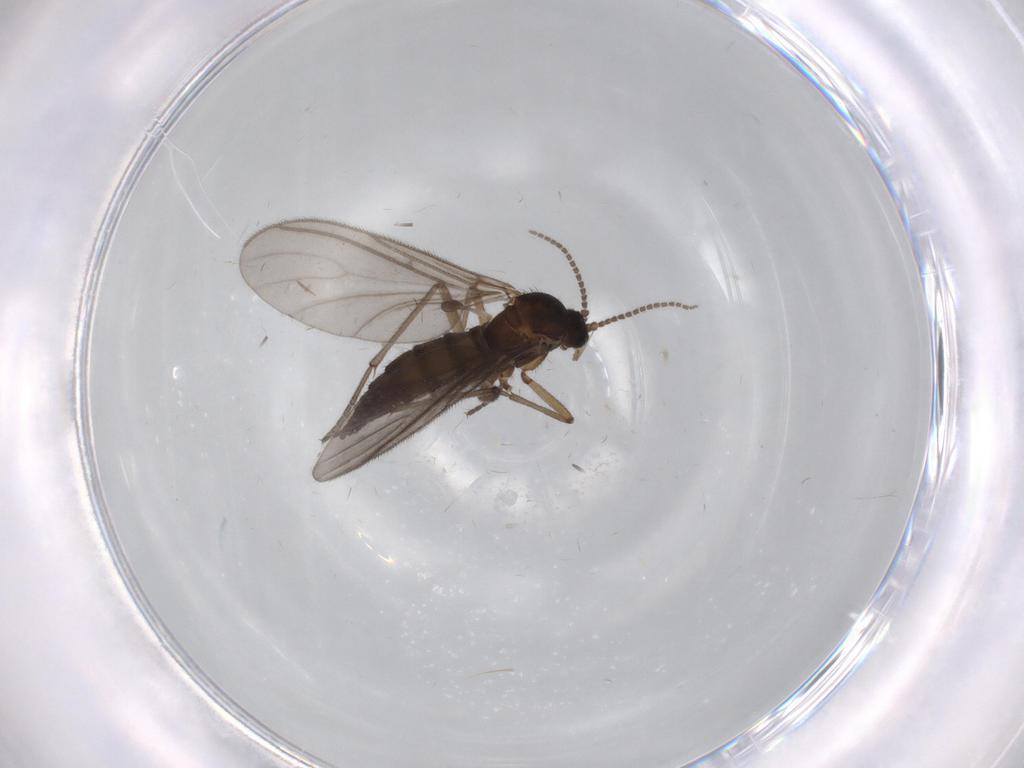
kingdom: Animalia
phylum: Arthropoda
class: Insecta
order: Diptera
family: Sciaridae
